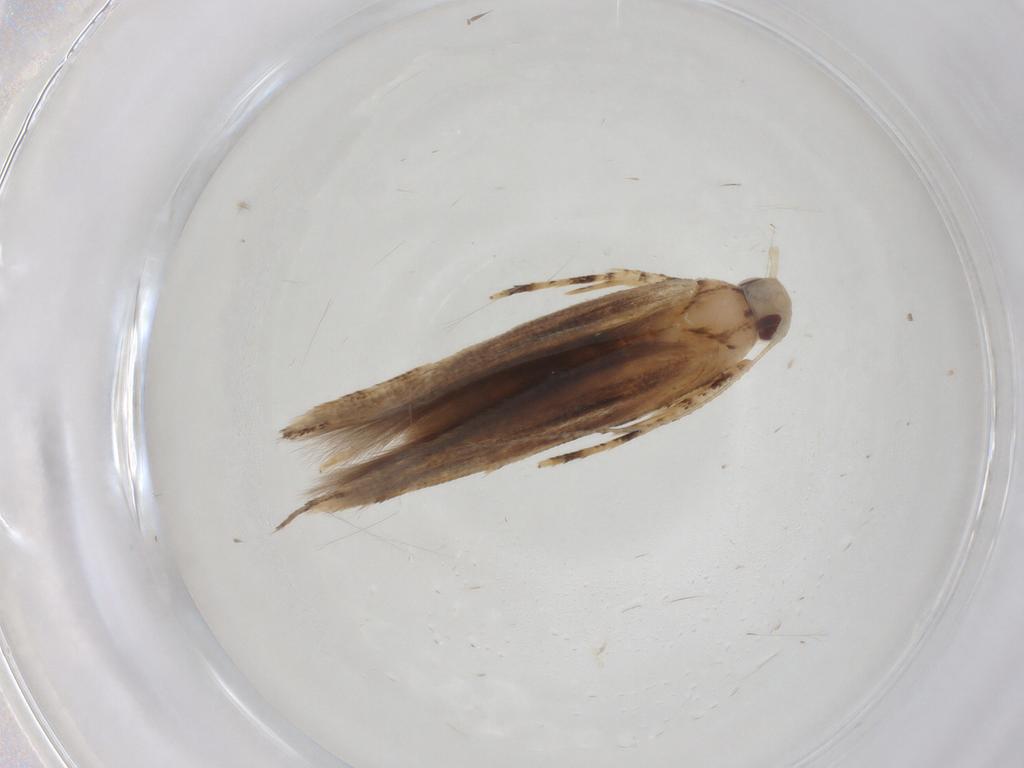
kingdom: Animalia
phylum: Arthropoda
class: Insecta
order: Lepidoptera
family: Cosmopterigidae
